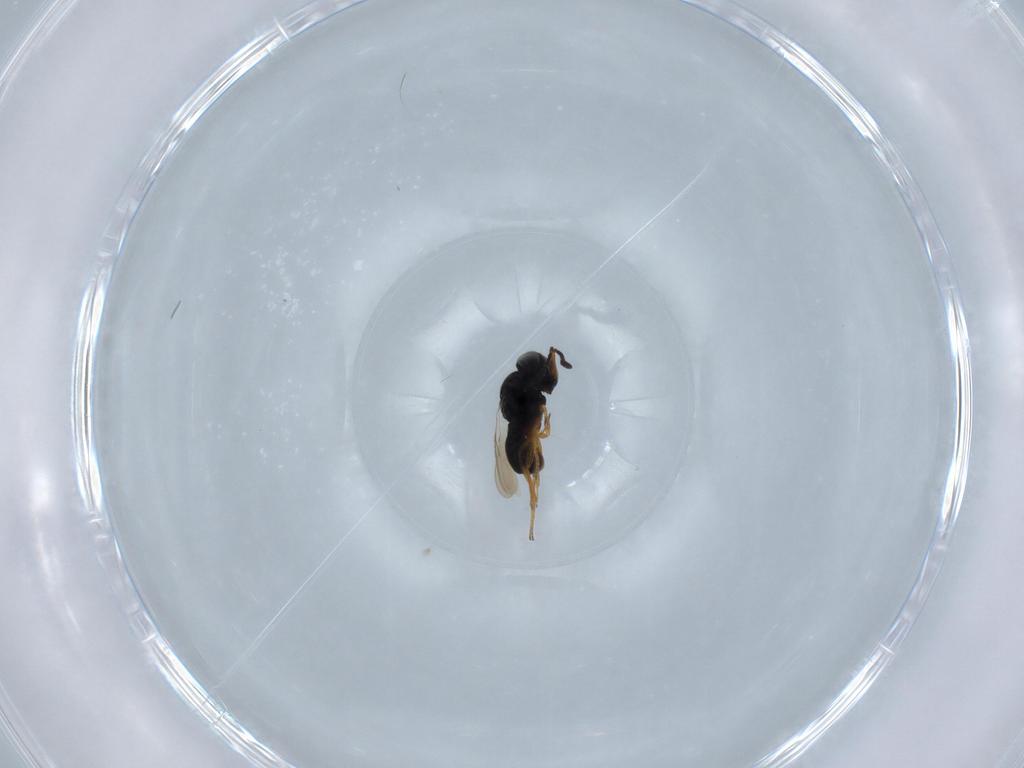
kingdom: Animalia
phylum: Arthropoda
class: Insecta
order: Hymenoptera
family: Scelionidae
